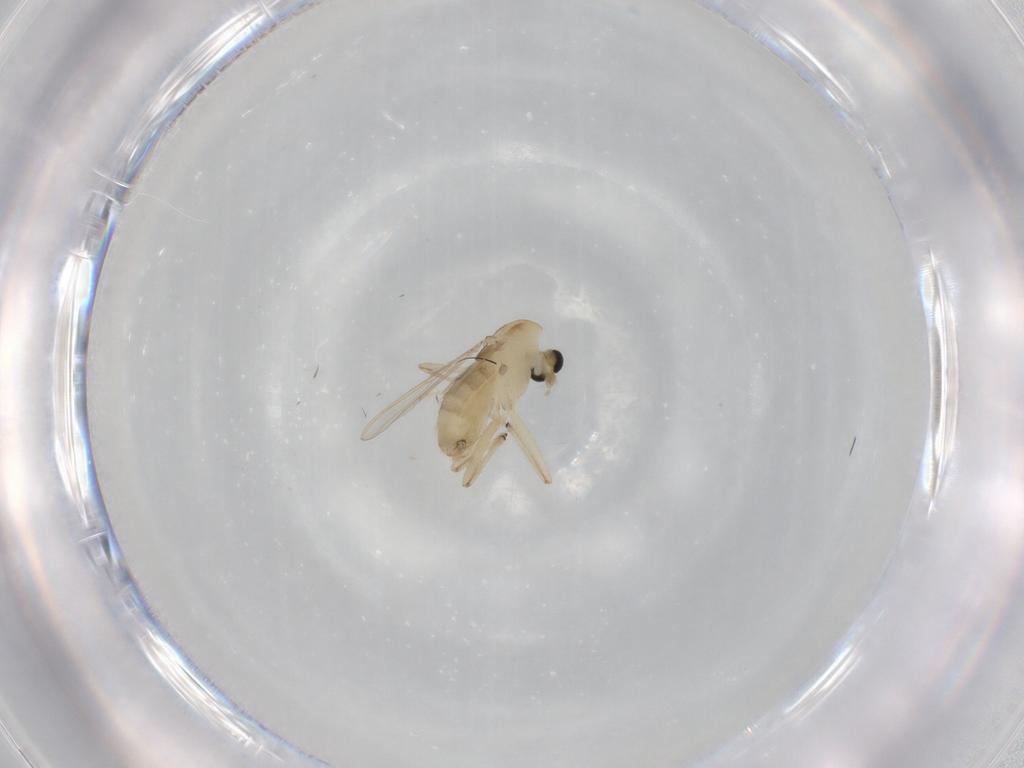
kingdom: Animalia
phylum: Arthropoda
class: Insecta
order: Diptera
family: Chironomidae
